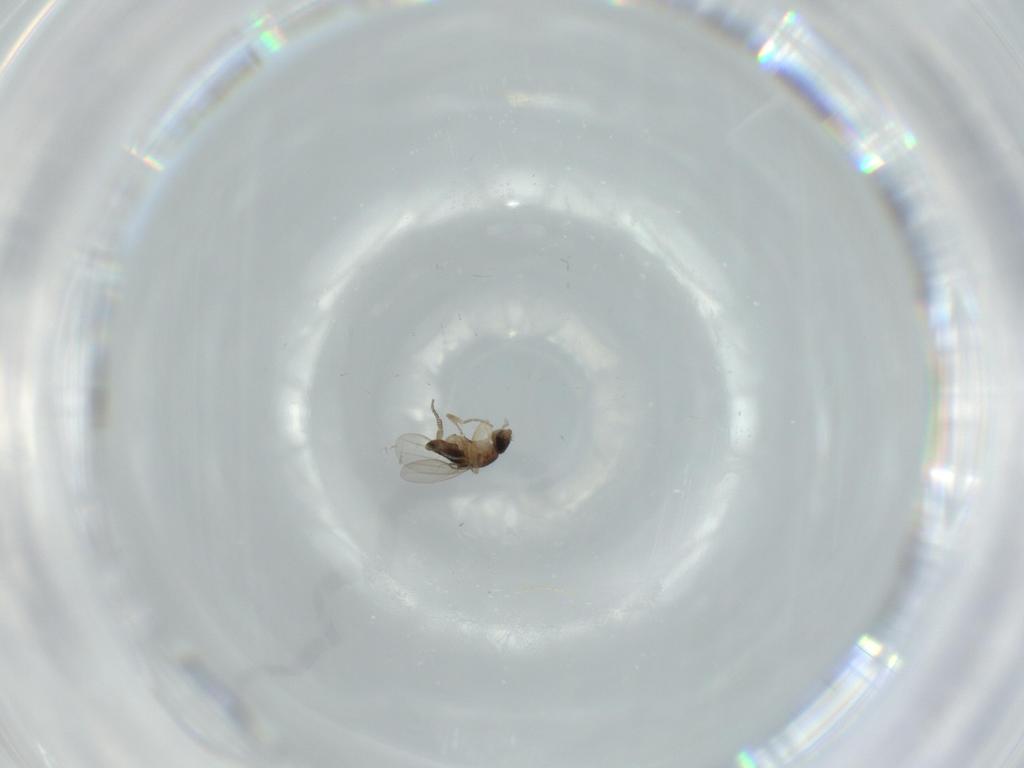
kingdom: Animalia
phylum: Arthropoda
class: Insecta
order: Diptera
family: Phoridae
